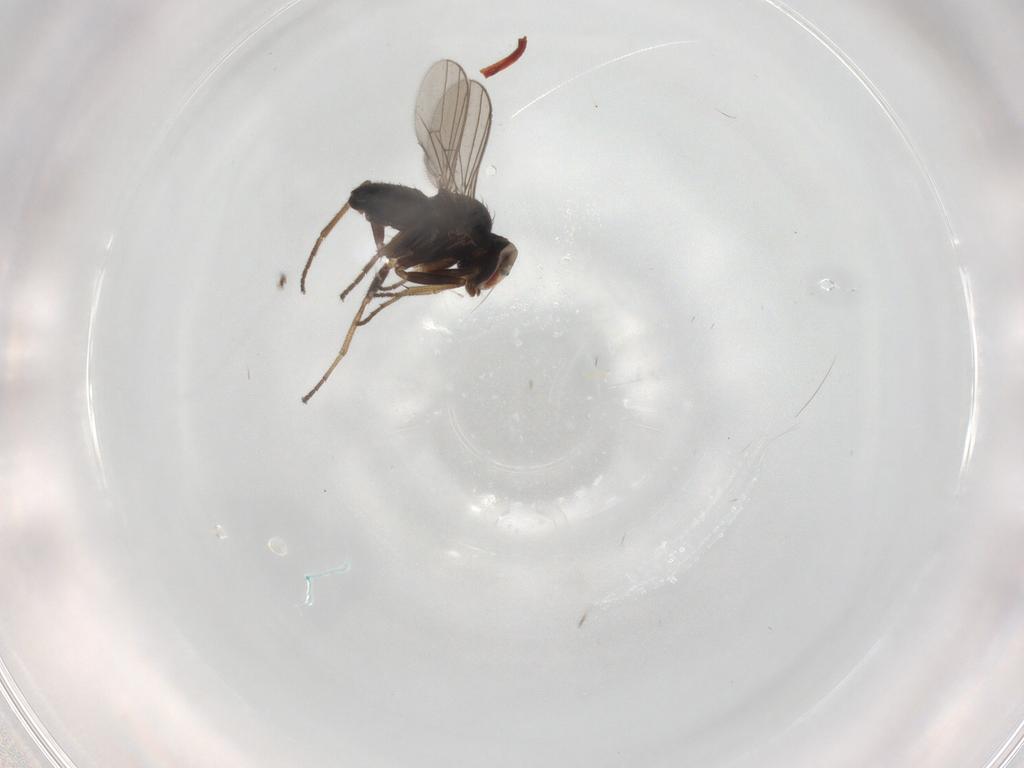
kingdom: Animalia
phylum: Arthropoda
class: Insecta
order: Diptera
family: Dolichopodidae
